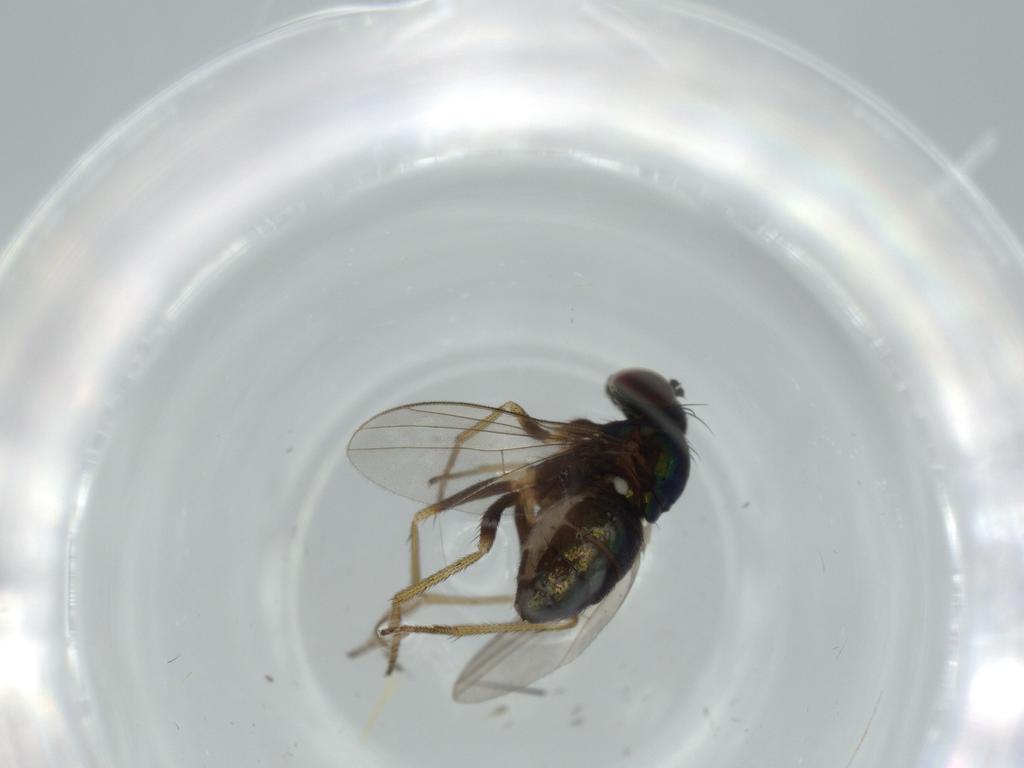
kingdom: Animalia
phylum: Arthropoda
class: Insecta
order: Diptera
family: Dolichopodidae
